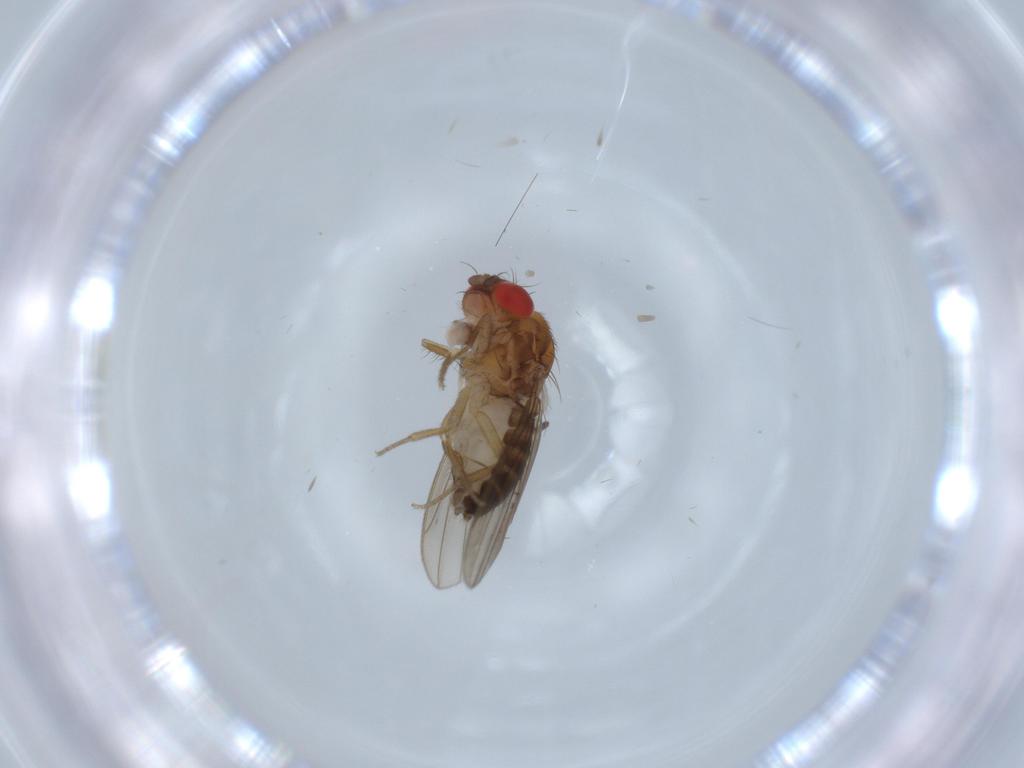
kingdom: Animalia
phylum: Arthropoda
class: Insecta
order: Diptera
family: Drosophilidae
